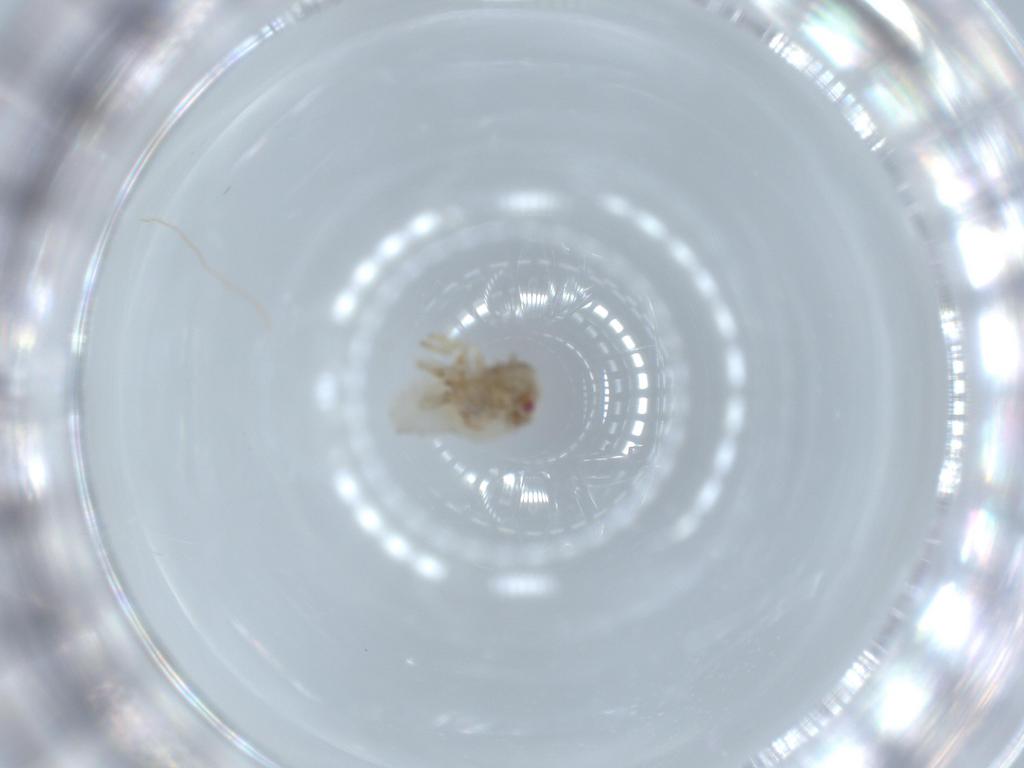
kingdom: Animalia
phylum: Arthropoda
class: Insecta
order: Hemiptera
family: Acanaloniidae
